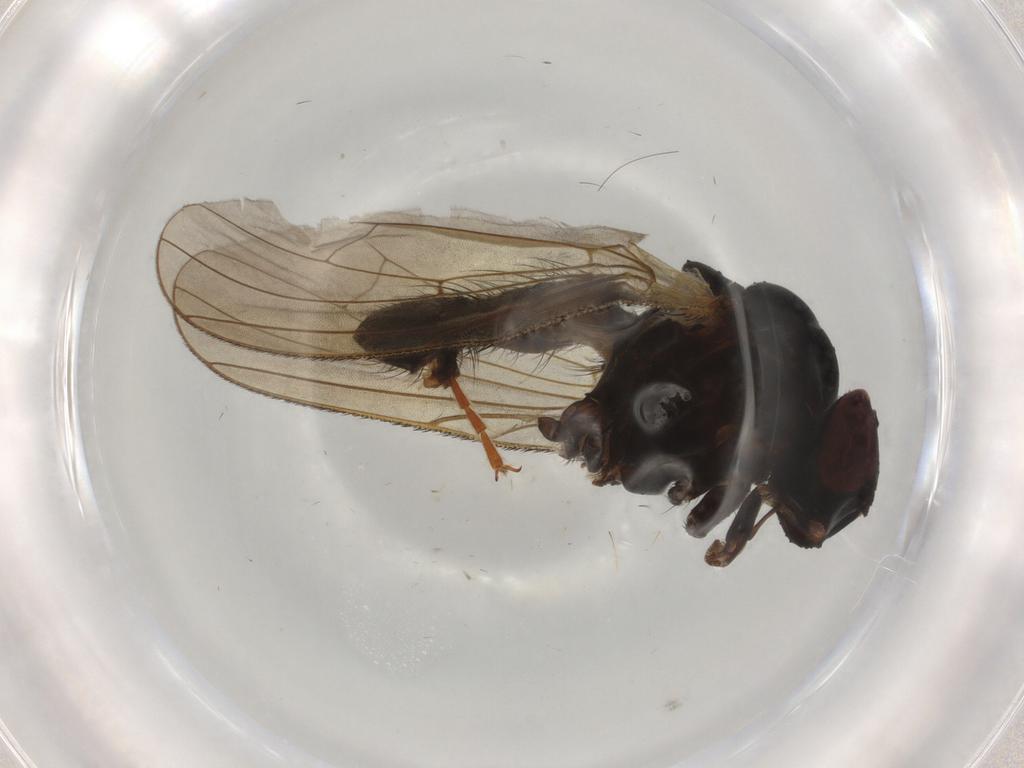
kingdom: Animalia
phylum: Arthropoda
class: Insecta
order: Diptera
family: Anthomyiidae
